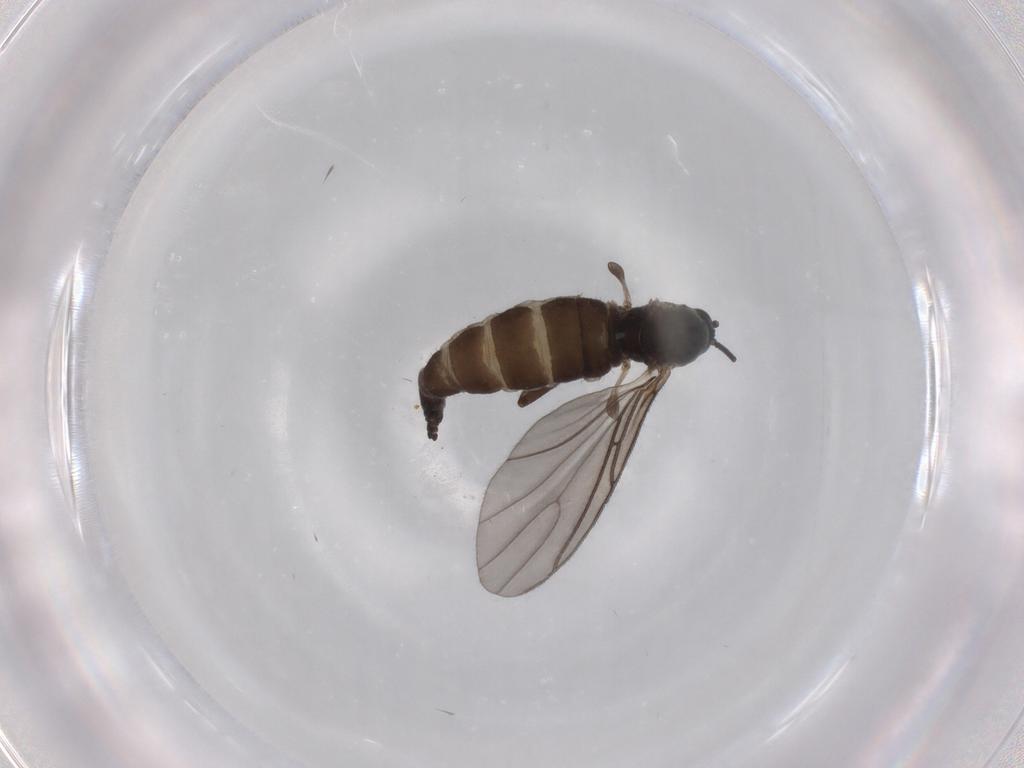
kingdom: Animalia
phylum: Arthropoda
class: Insecta
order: Diptera
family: Sciaridae
